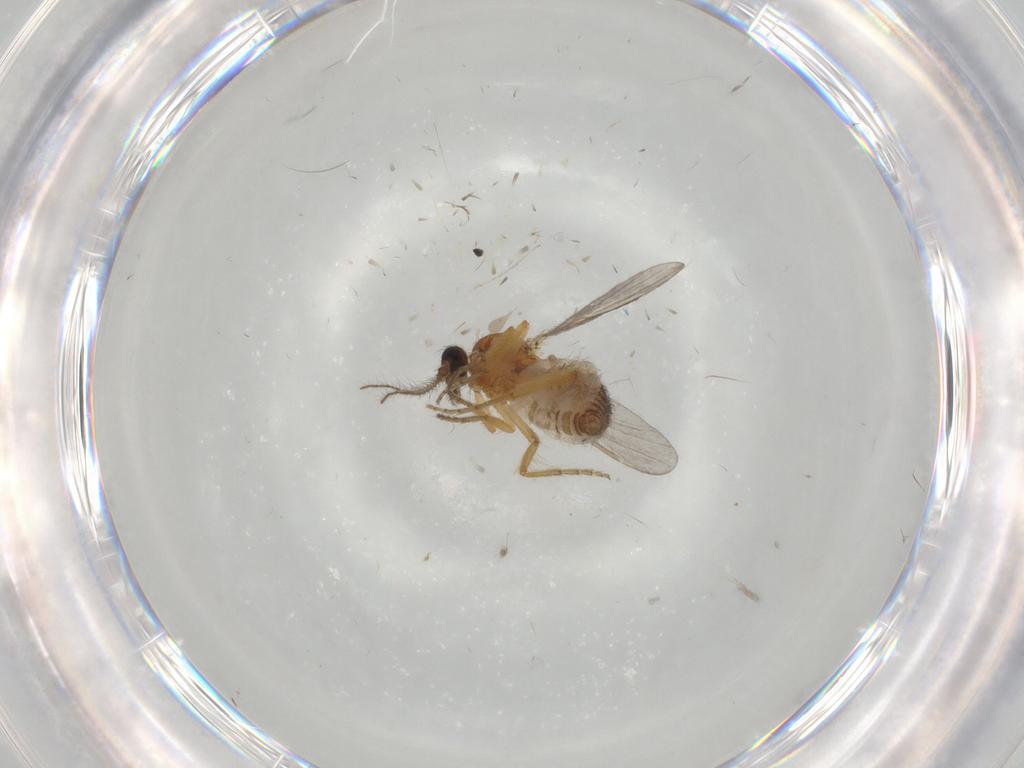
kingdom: Animalia
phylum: Arthropoda
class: Insecta
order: Diptera
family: Ceratopogonidae
